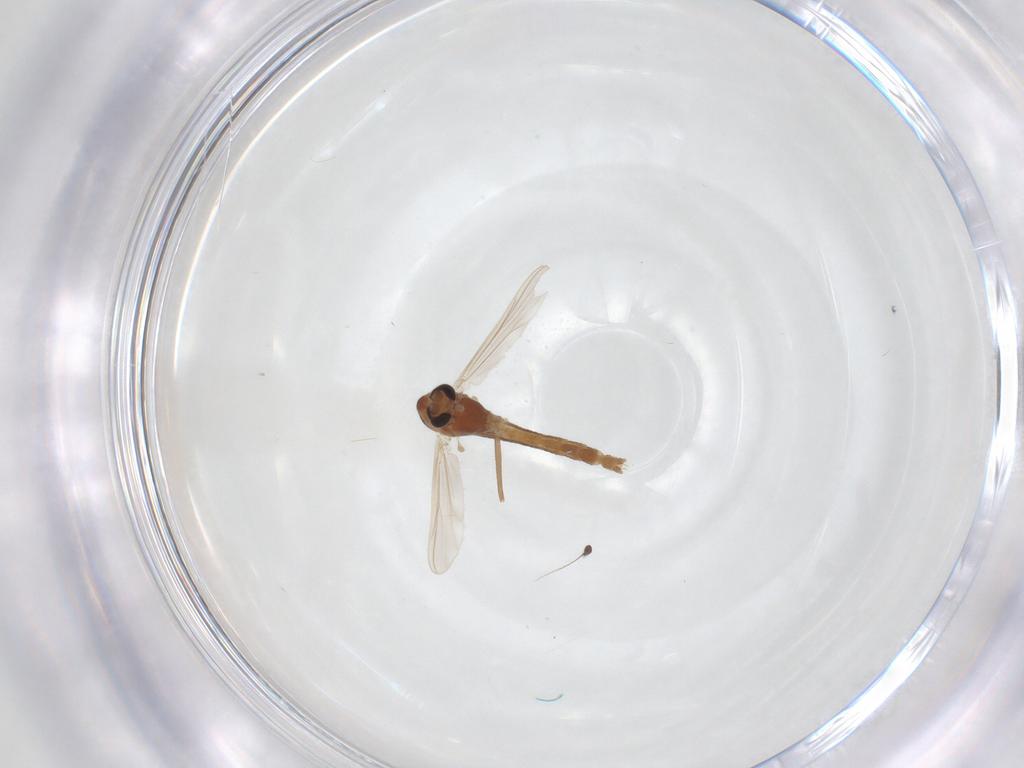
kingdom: Animalia
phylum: Arthropoda
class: Insecta
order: Diptera
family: Chironomidae
